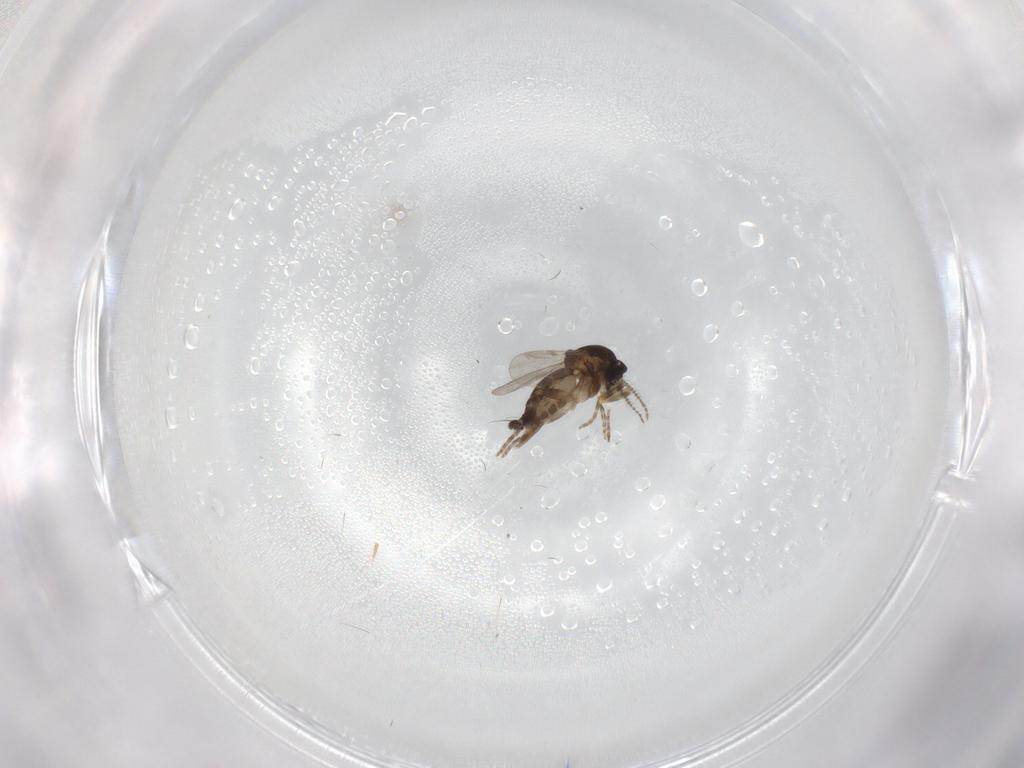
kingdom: Animalia
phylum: Arthropoda
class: Insecta
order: Diptera
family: Ceratopogonidae
